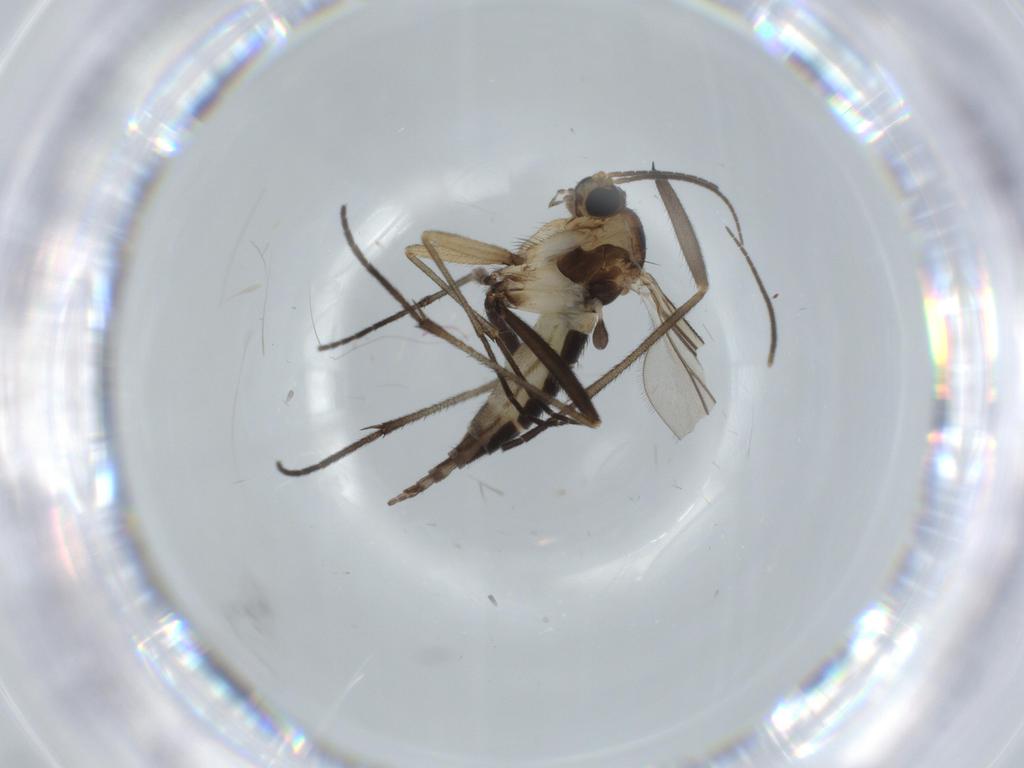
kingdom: Animalia
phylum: Arthropoda
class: Insecta
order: Diptera
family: Sciaridae
